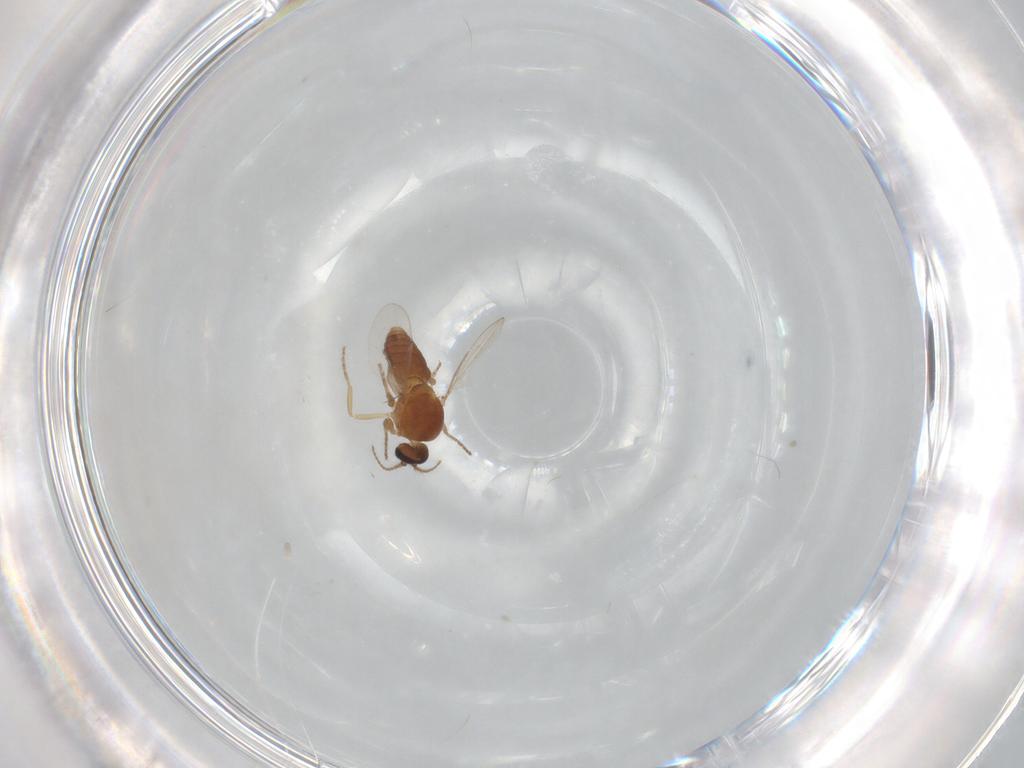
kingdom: Animalia
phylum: Arthropoda
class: Insecta
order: Diptera
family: Ceratopogonidae
